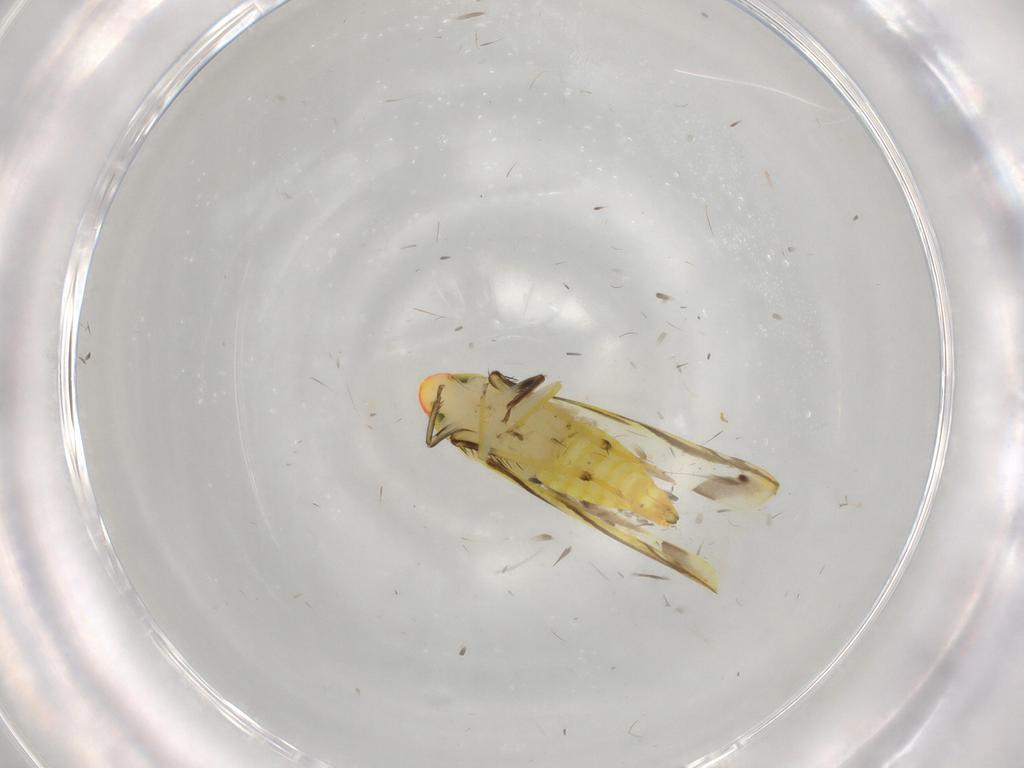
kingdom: Animalia
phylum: Arthropoda
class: Insecta
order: Hemiptera
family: Cicadellidae
